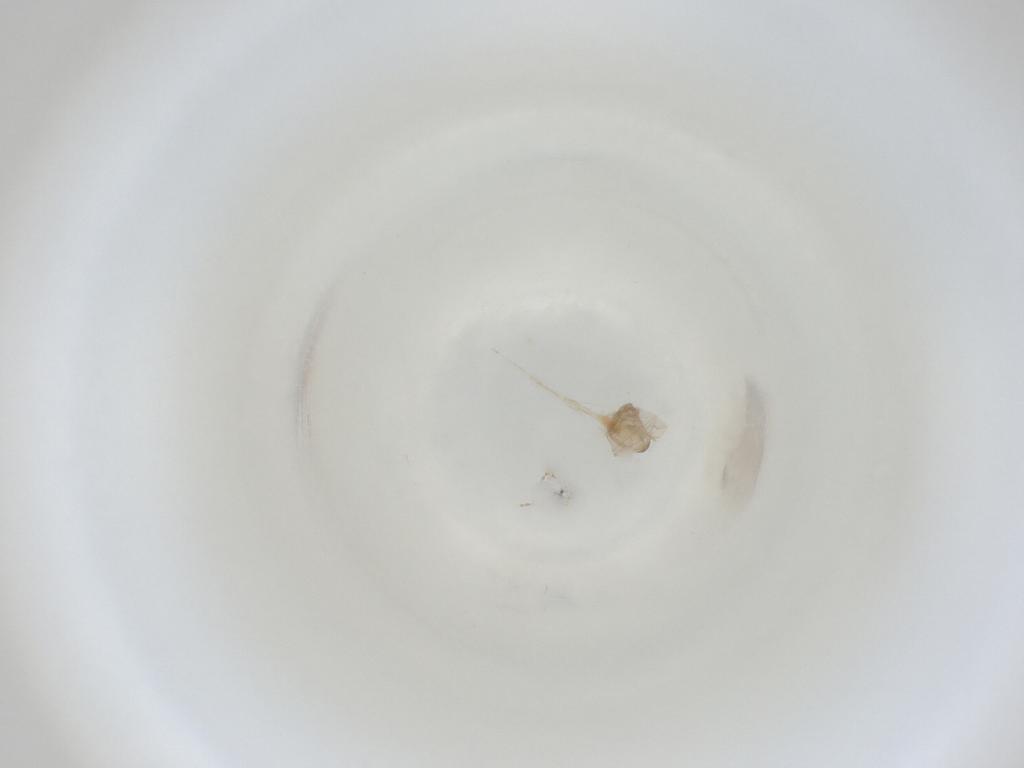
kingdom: Animalia
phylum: Arthropoda
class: Insecta
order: Diptera
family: Cecidomyiidae
